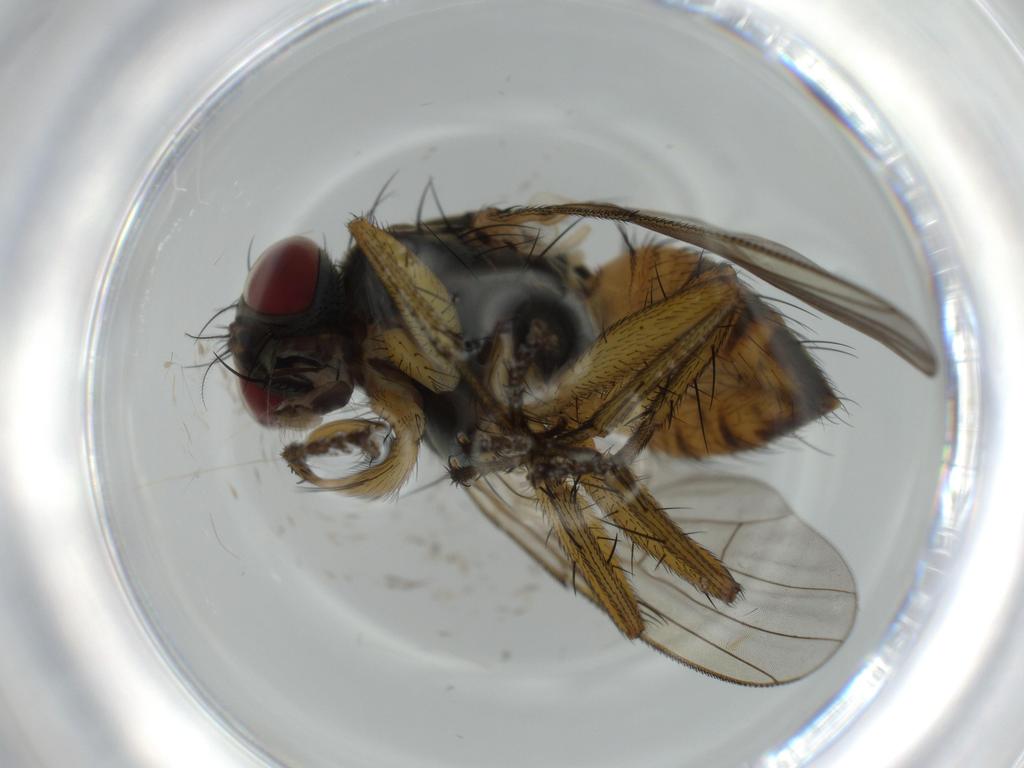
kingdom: Animalia
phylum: Arthropoda
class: Insecta
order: Diptera
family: Muscidae
